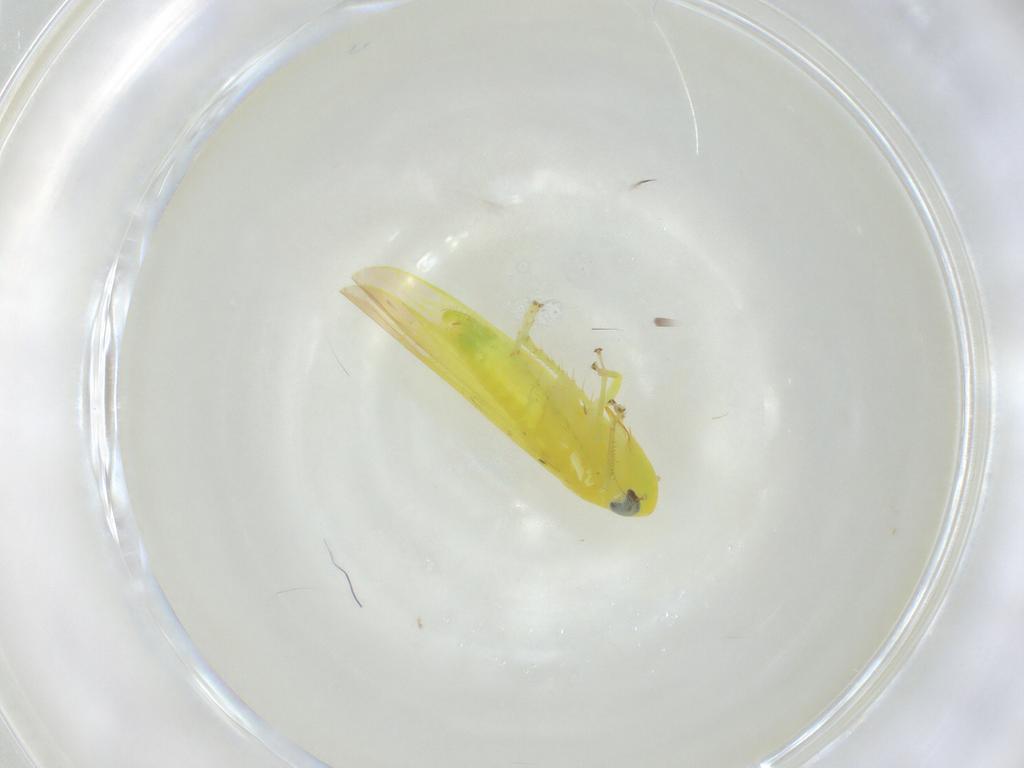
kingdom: Animalia
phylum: Arthropoda
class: Insecta
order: Hemiptera
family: Cicadellidae
